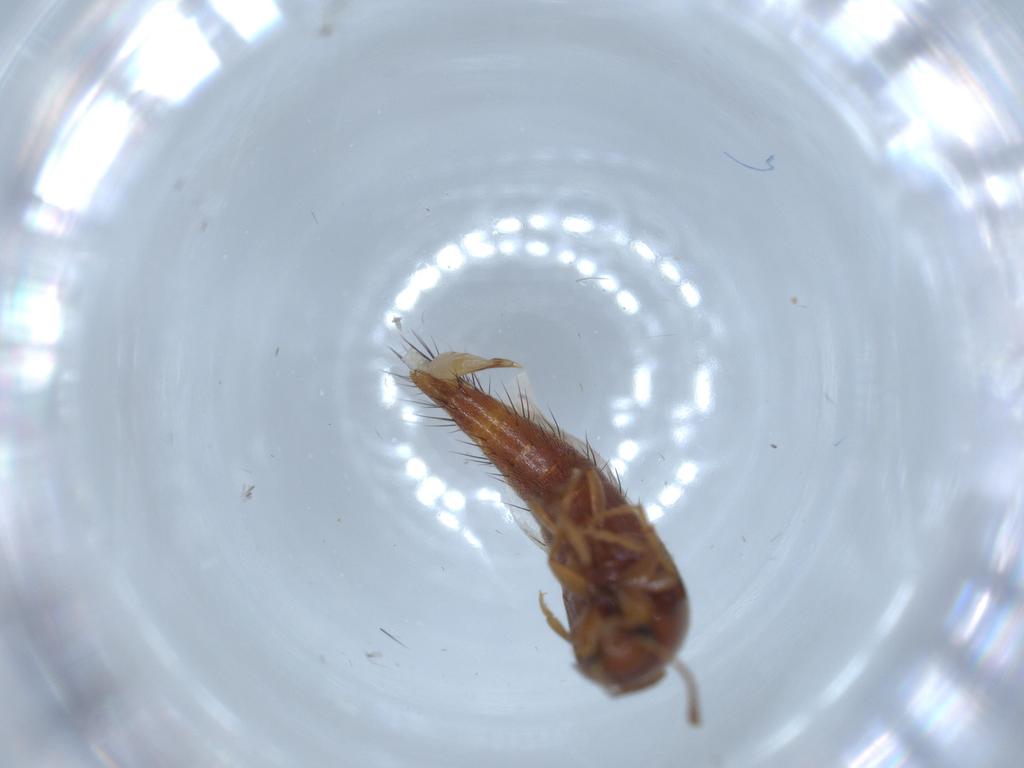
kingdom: Animalia
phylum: Arthropoda
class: Insecta
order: Coleoptera
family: Staphylinidae
